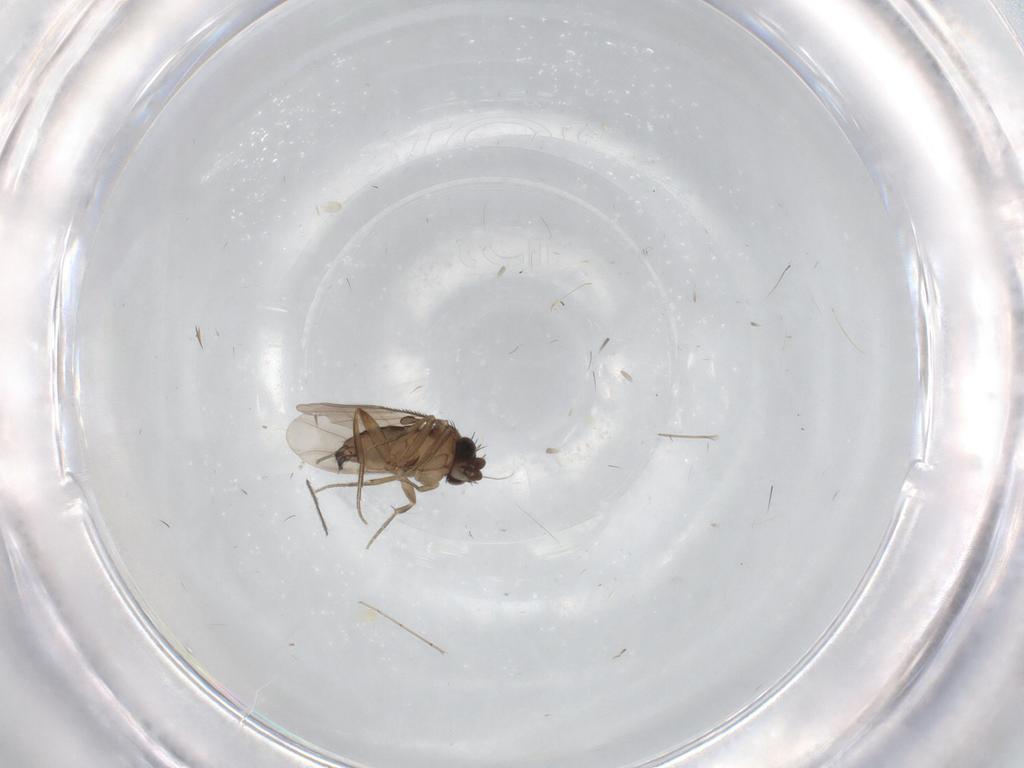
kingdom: Animalia
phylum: Arthropoda
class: Insecta
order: Diptera
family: Phoridae
